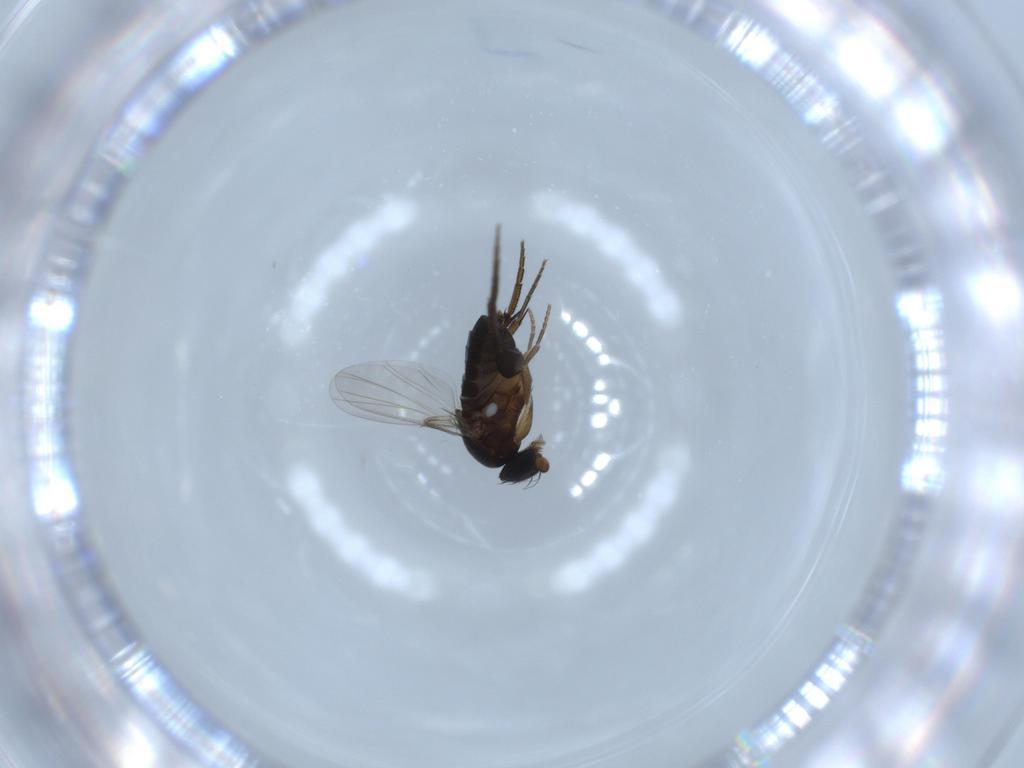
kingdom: Animalia
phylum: Arthropoda
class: Insecta
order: Diptera
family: Phoridae
